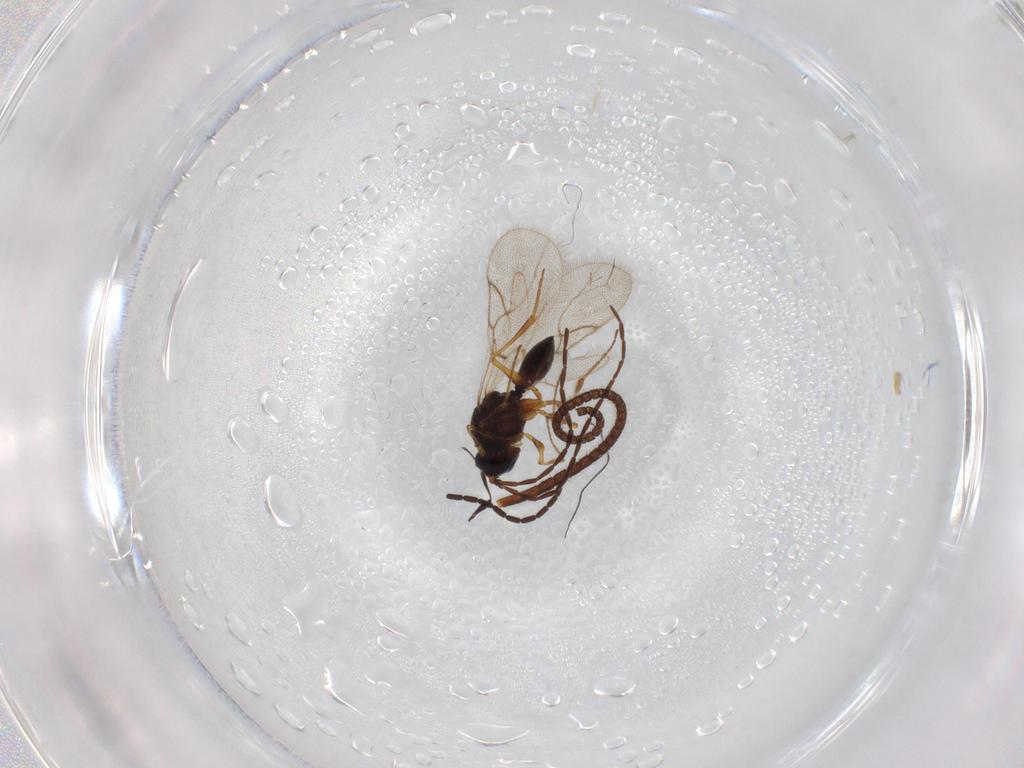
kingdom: Animalia
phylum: Arthropoda
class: Insecta
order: Hymenoptera
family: Ichneumonidae
